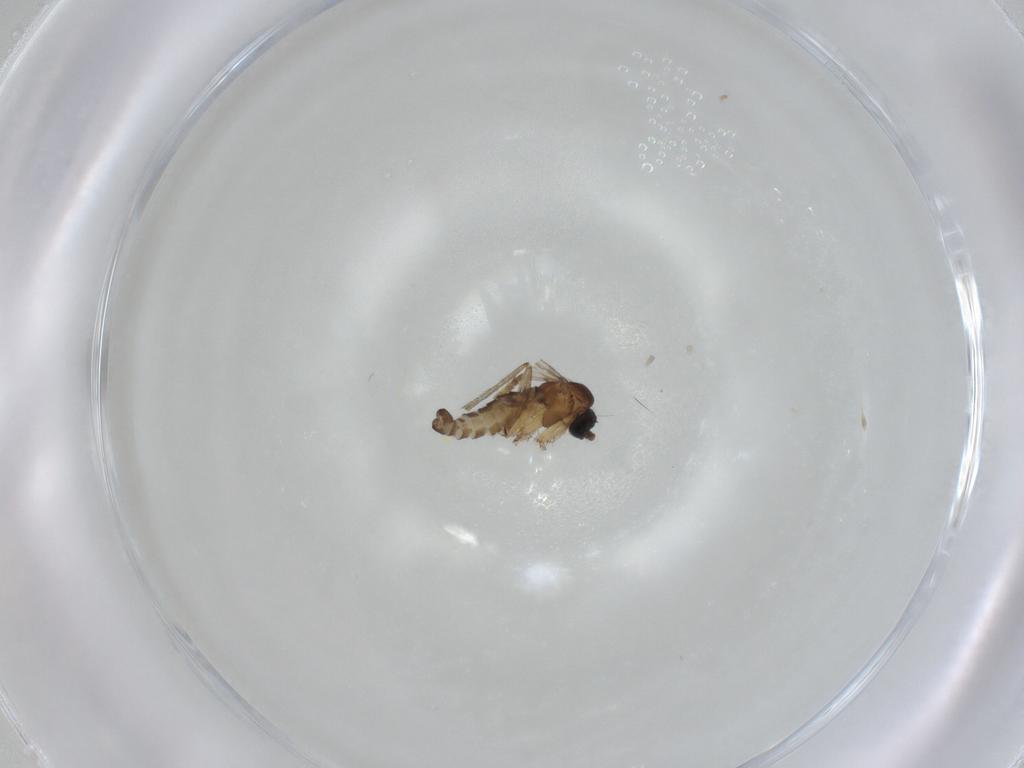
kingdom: Animalia
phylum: Arthropoda
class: Insecta
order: Diptera
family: Sciaridae
